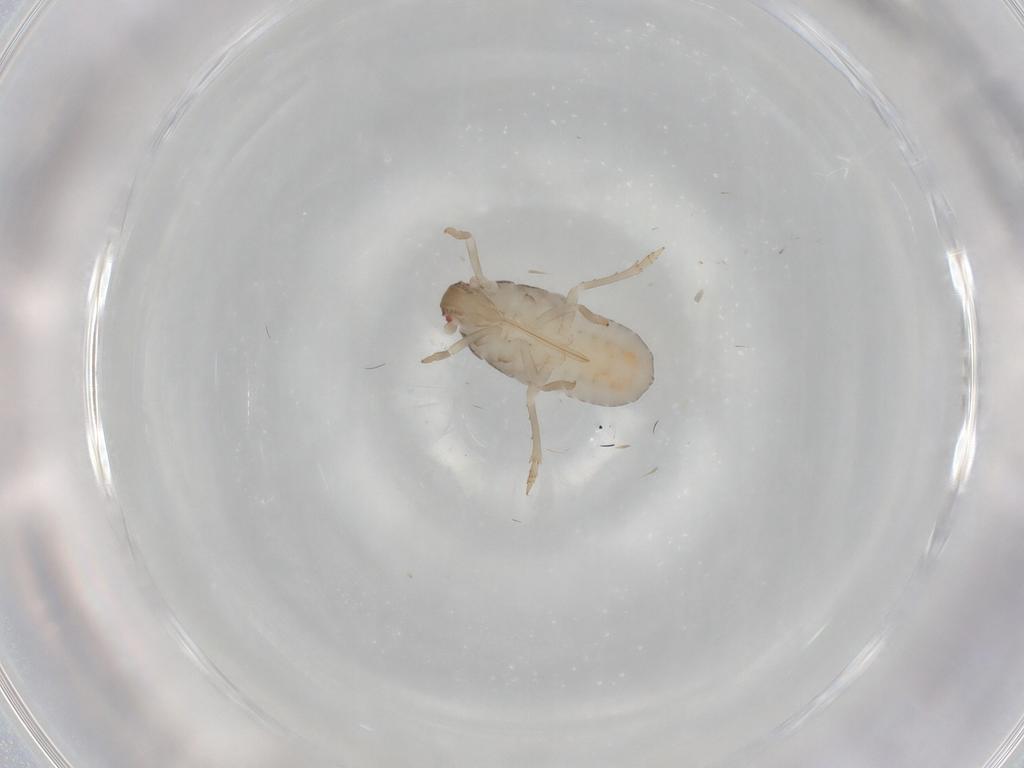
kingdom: Animalia
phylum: Arthropoda
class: Insecta
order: Hemiptera
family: Achilidae
